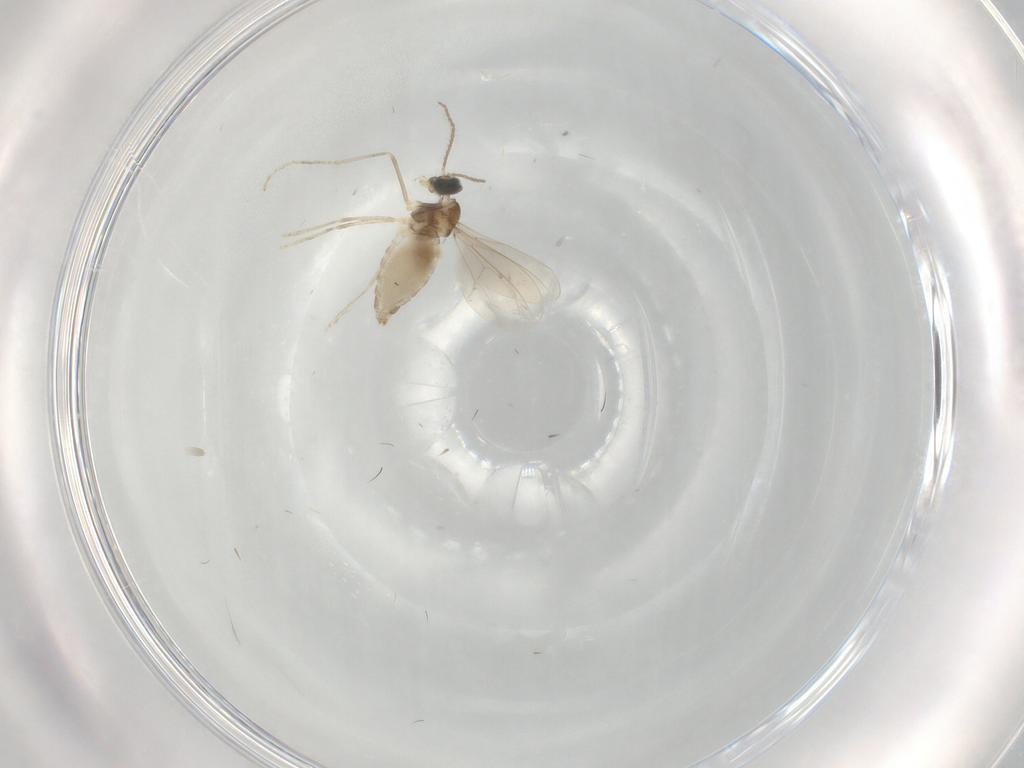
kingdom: Animalia
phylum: Arthropoda
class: Insecta
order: Diptera
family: Cecidomyiidae
